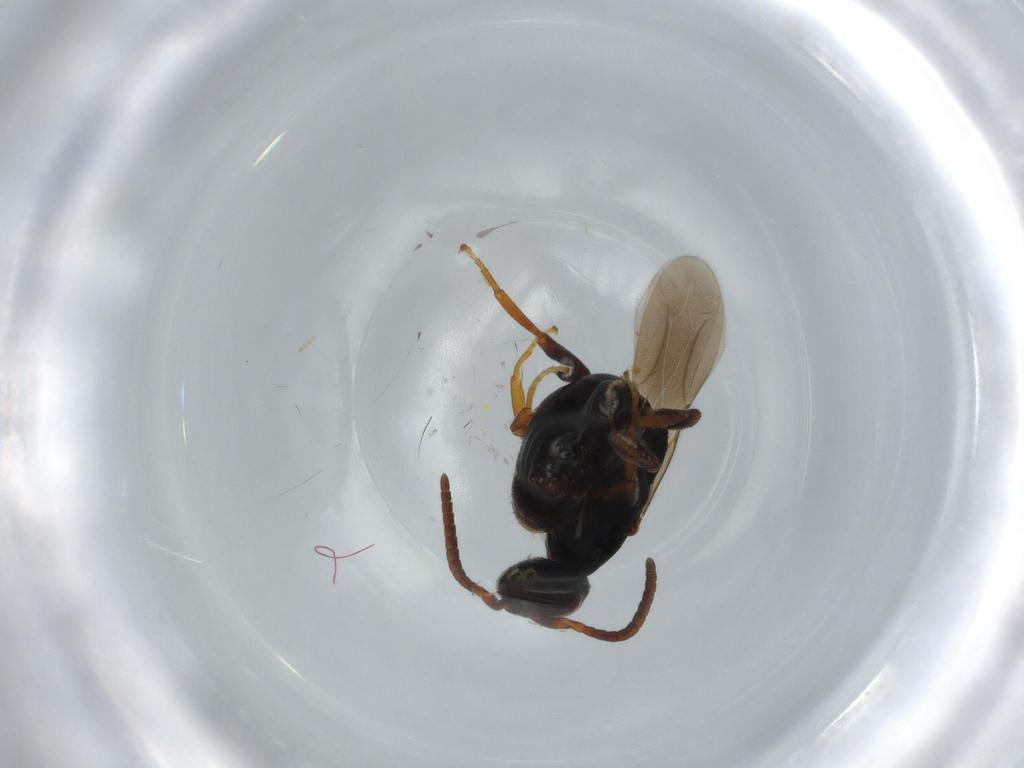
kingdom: Animalia
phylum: Arthropoda
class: Insecta
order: Hymenoptera
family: Bethylidae
